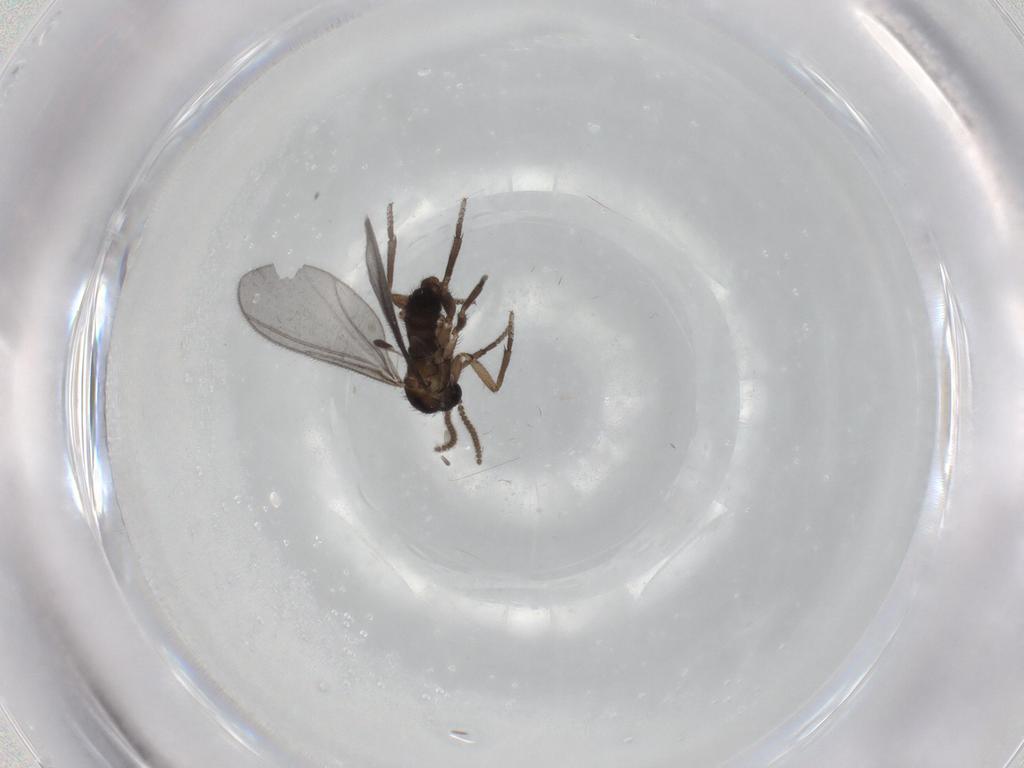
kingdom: Animalia
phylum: Arthropoda
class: Insecta
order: Diptera
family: Sciaridae
